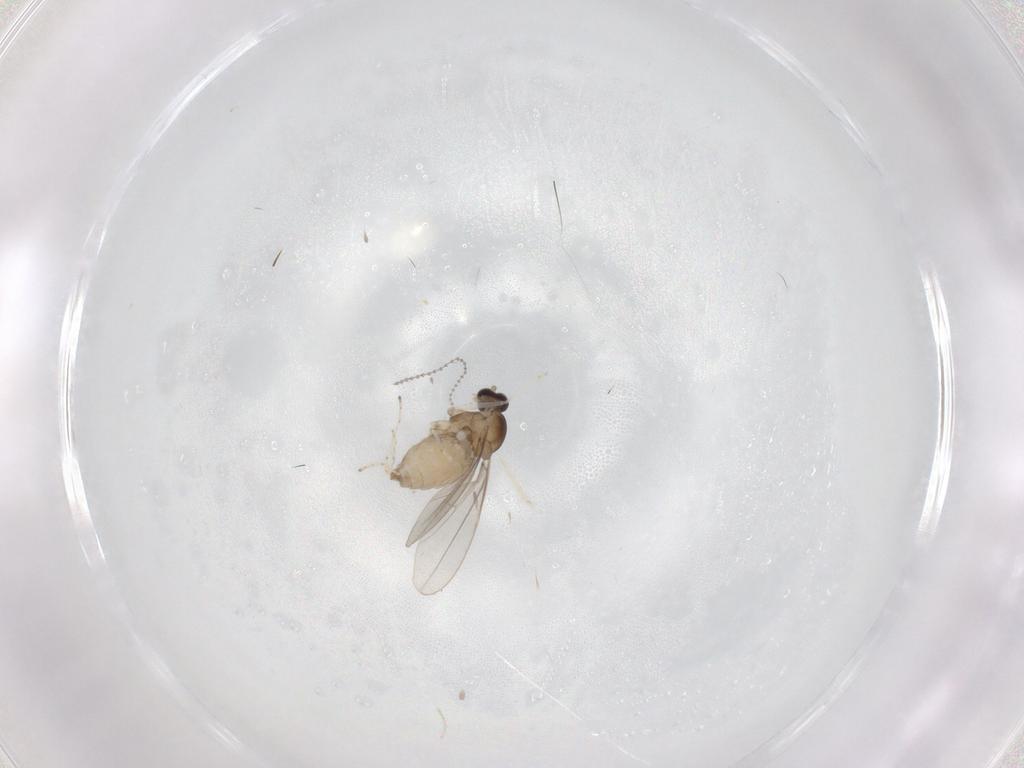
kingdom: Animalia
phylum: Arthropoda
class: Insecta
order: Diptera
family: Cecidomyiidae
